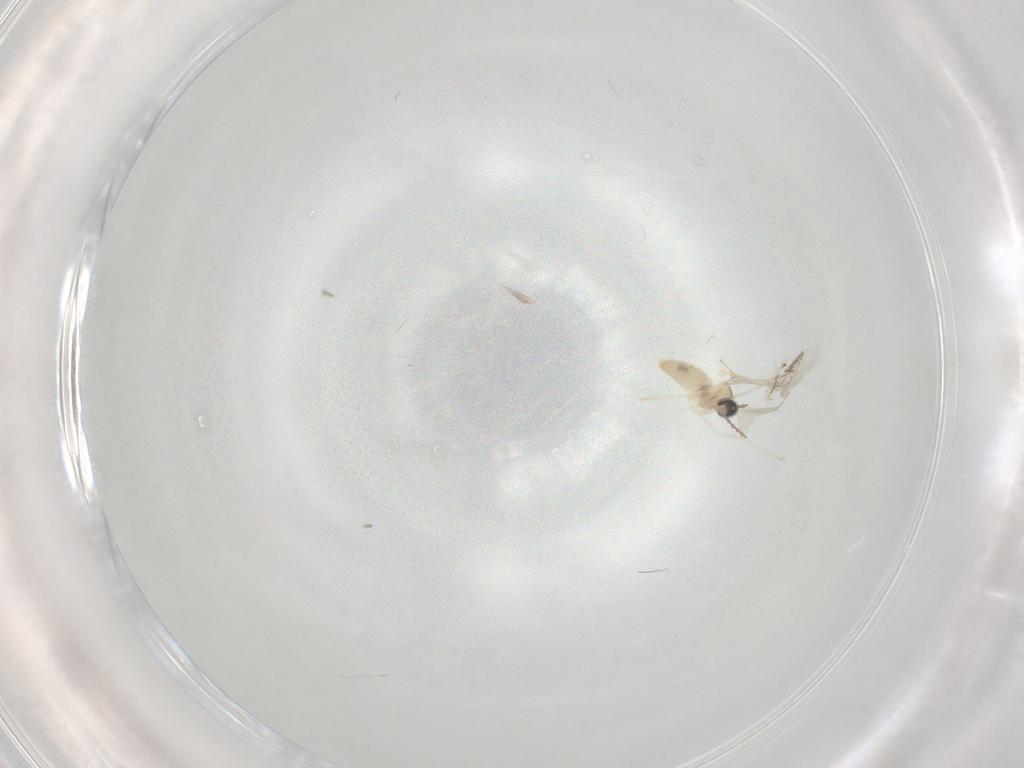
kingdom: Animalia
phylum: Arthropoda
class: Insecta
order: Diptera
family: Cecidomyiidae
